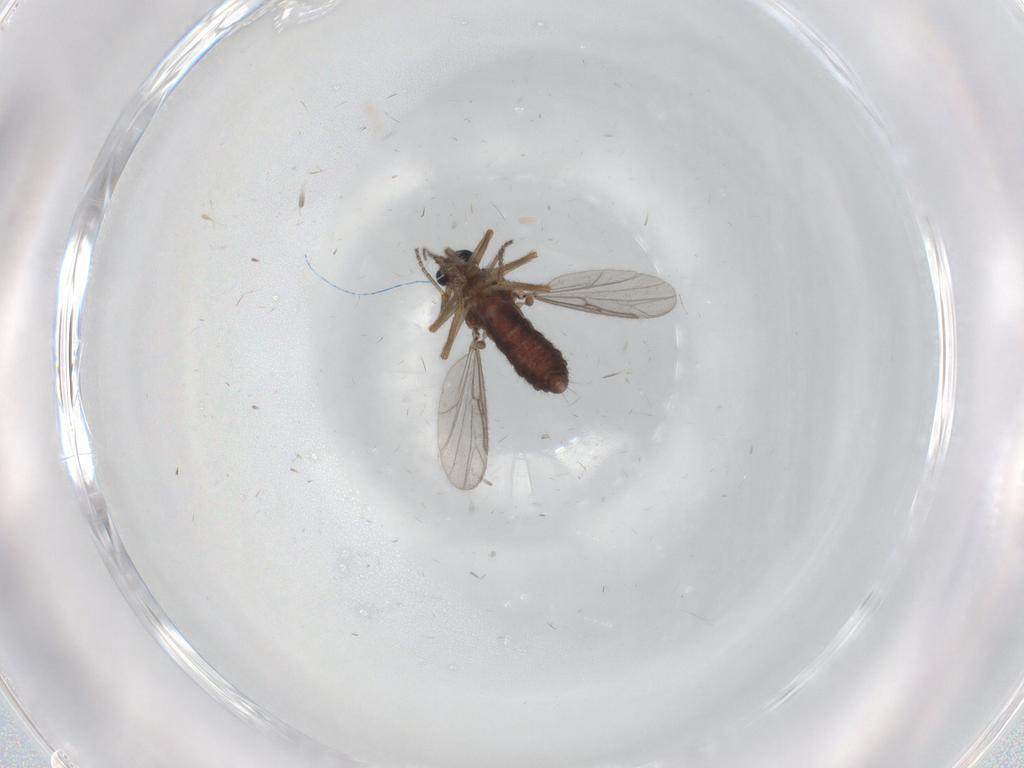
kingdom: Animalia
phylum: Arthropoda
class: Insecta
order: Diptera
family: Ceratopogonidae
